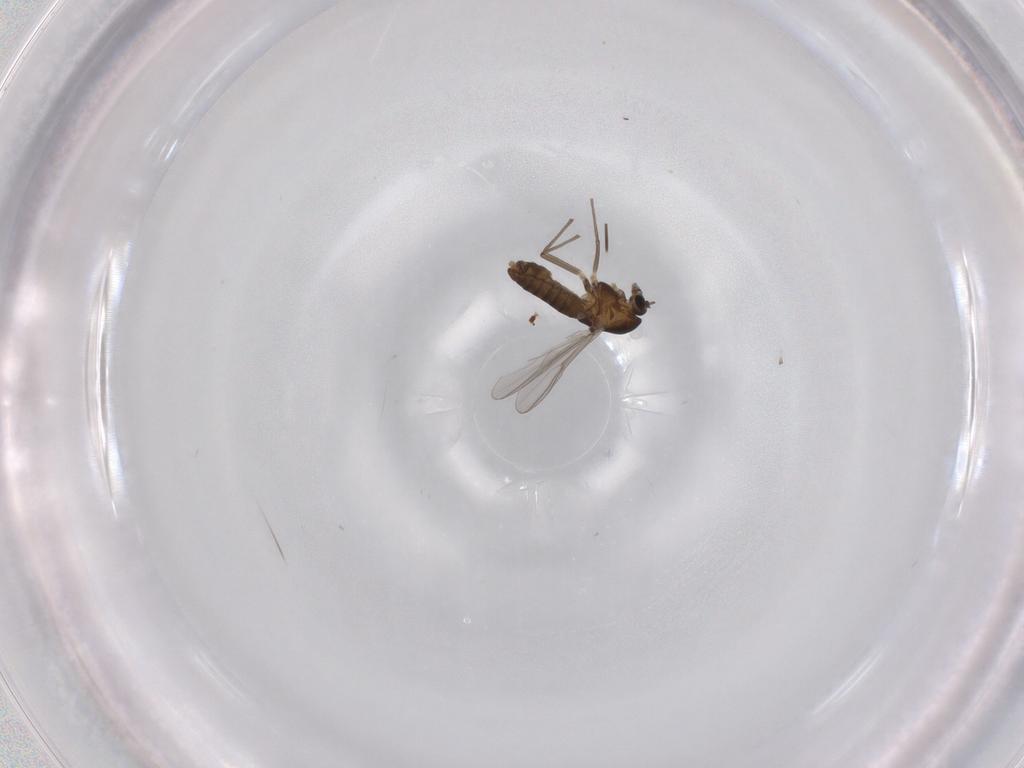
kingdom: Animalia
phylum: Arthropoda
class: Insecta
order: Diptera
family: Chironomidae
